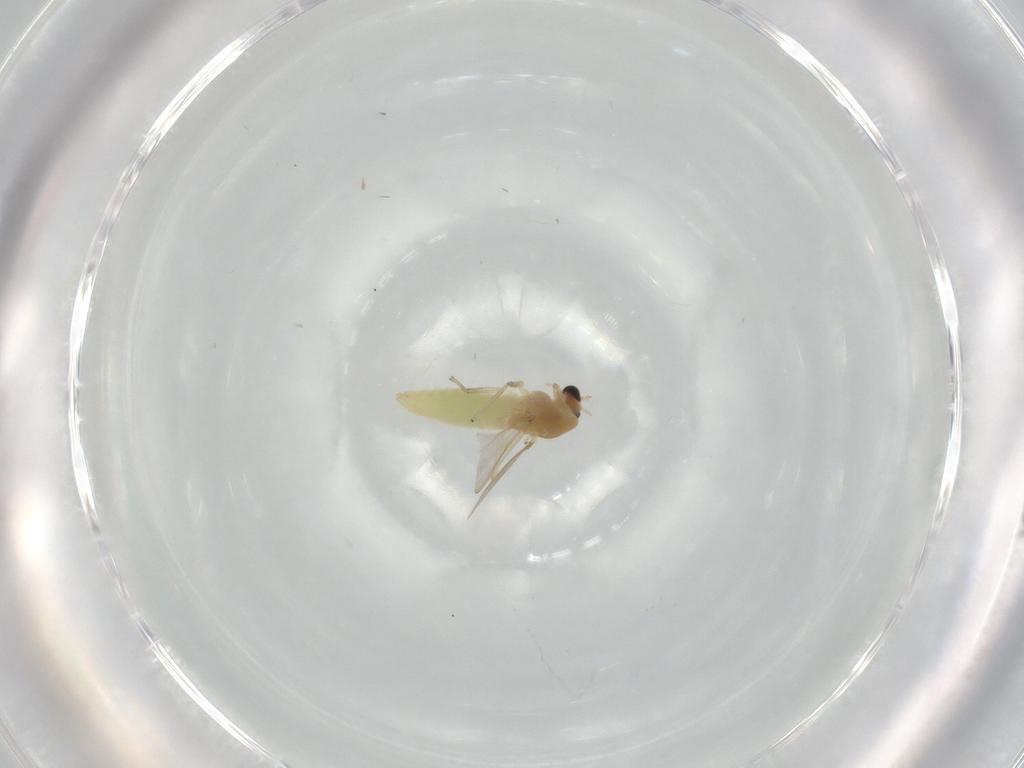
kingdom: Animalia
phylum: Arthropoda
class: Insecta
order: Diptera
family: Chironomidae
